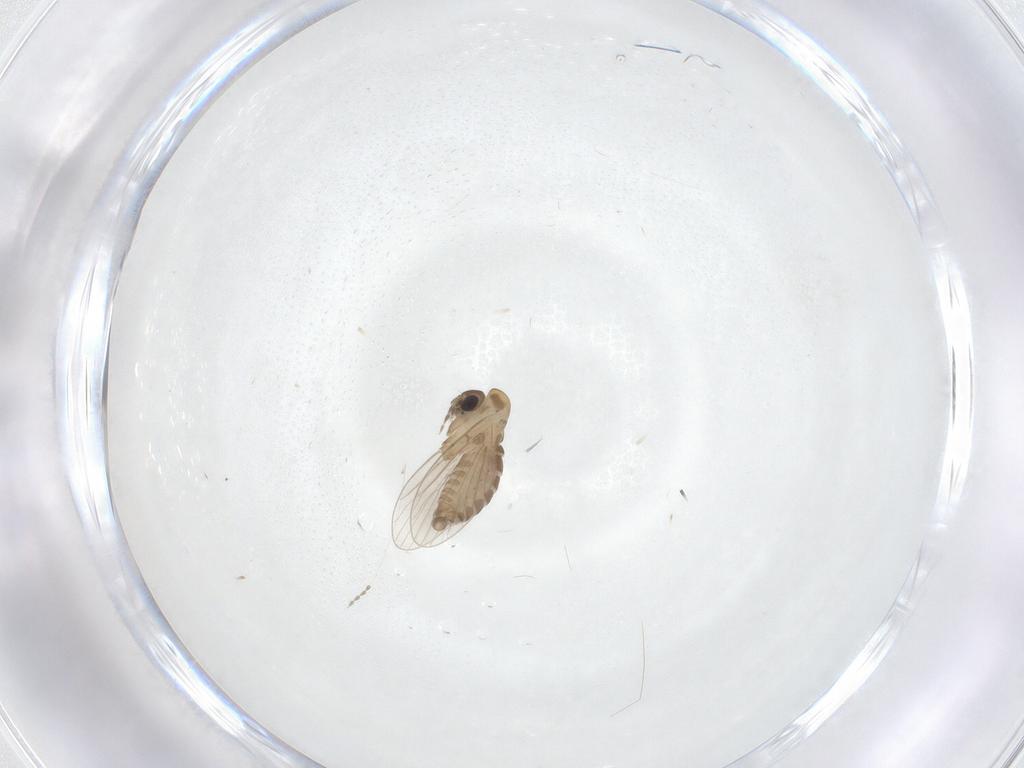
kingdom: Animalia
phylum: Arthropoda
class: Insecta
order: Diptera
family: Psychodidae
